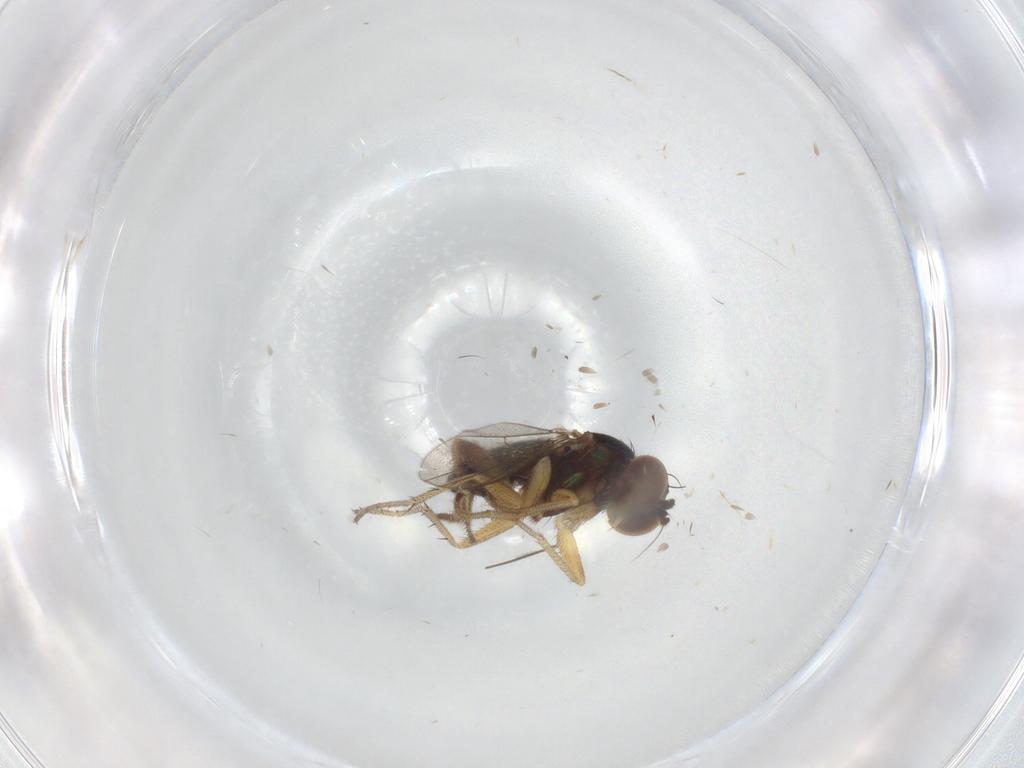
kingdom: Animalia
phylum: Arthropoda
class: Insecta
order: Diptera
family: Dolichopodidae
